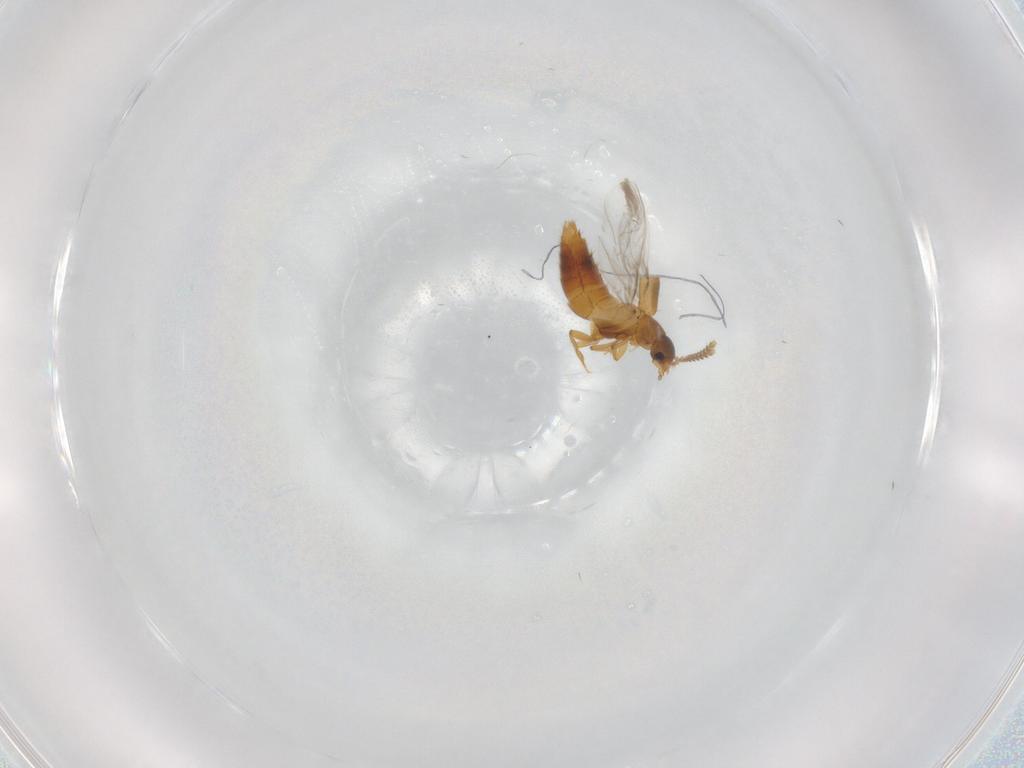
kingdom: Animalia
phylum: Arthropoda
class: Insecta
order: Coleoptera
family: Staphylinidae
